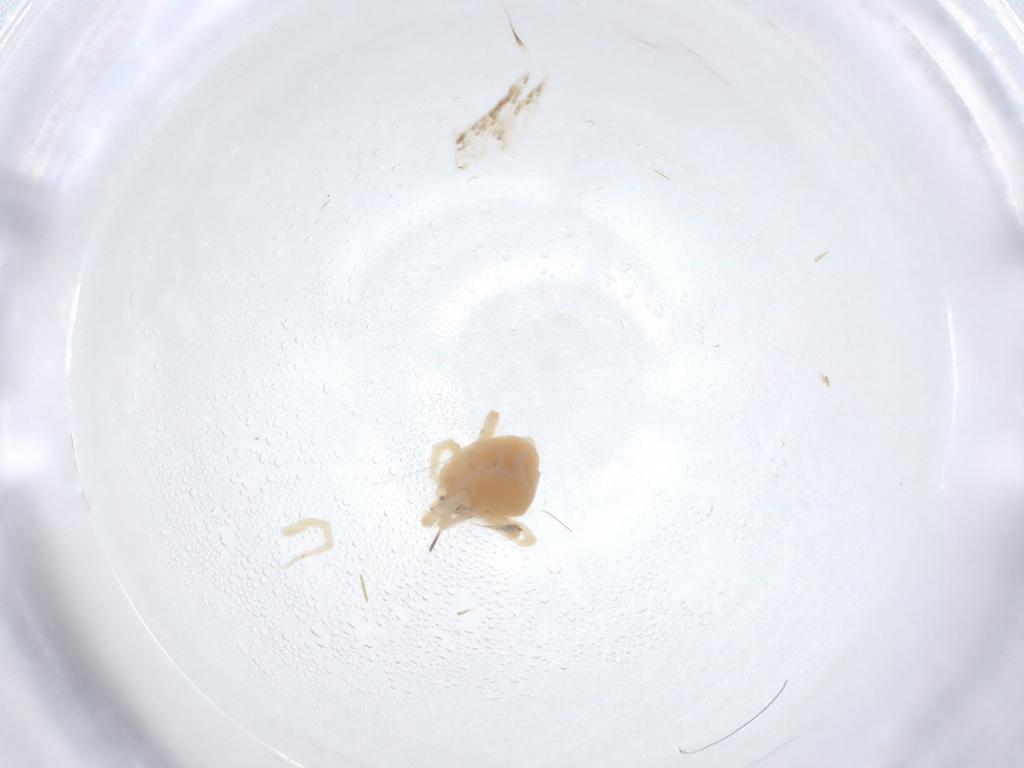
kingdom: Animalia
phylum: Arthropoda
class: Arachnida
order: Trombidiformes
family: Anystidae
